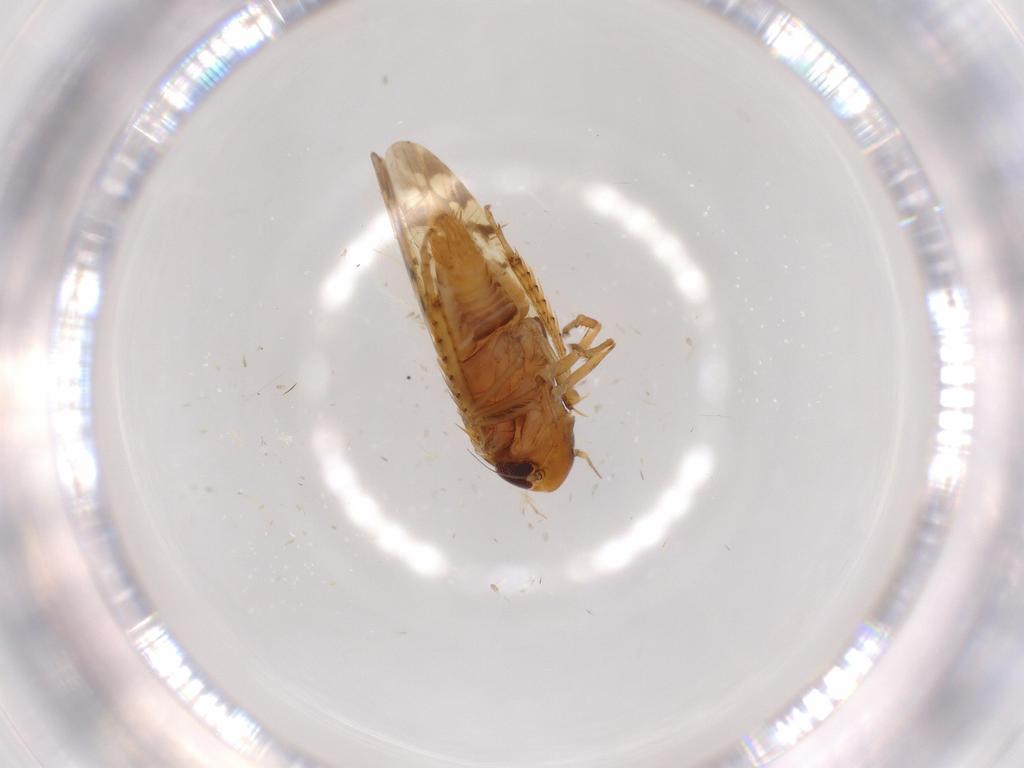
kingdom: Animalia
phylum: Arthropoda
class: Insecta
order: Hemiptera
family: Cicadellidae
